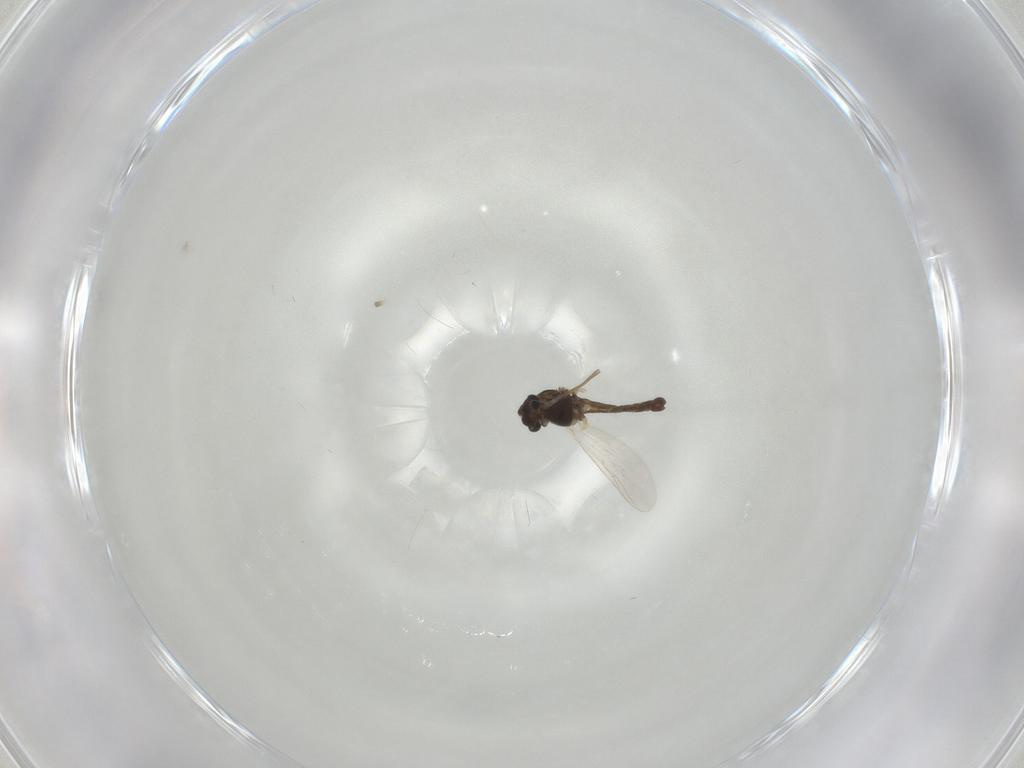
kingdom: Animalia
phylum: Arthropoda
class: Insecta
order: Diptera
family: Chironomidae
